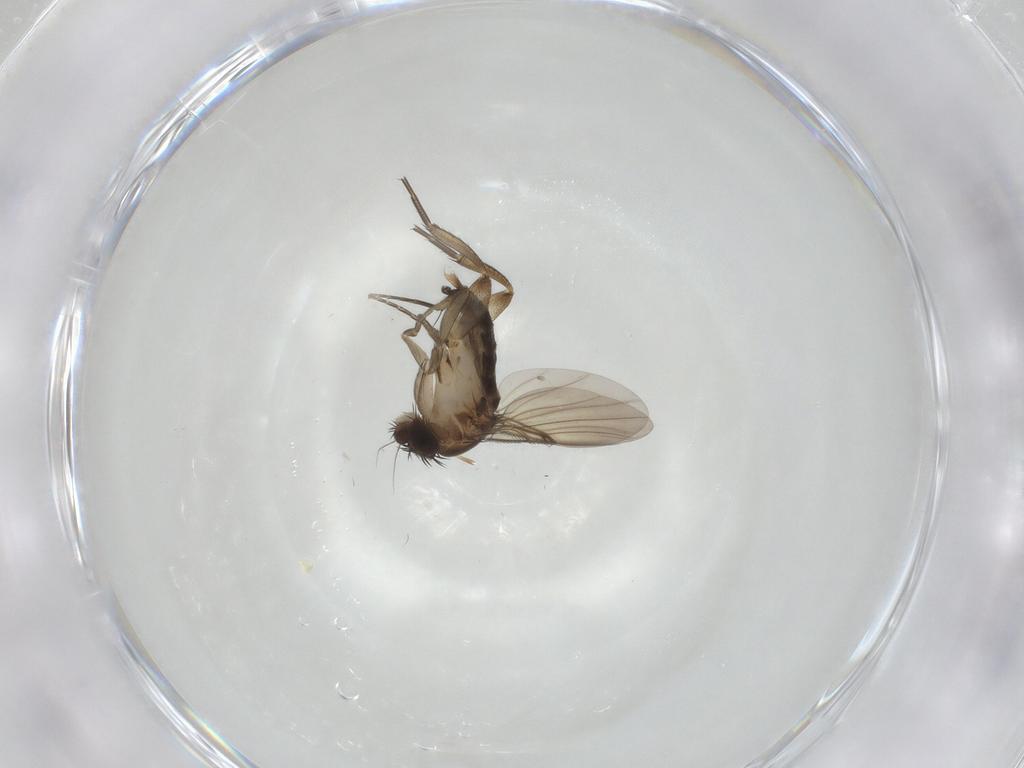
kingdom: Animalia
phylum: Arthropoda
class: Insecta
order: Diptera
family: Phoridae
